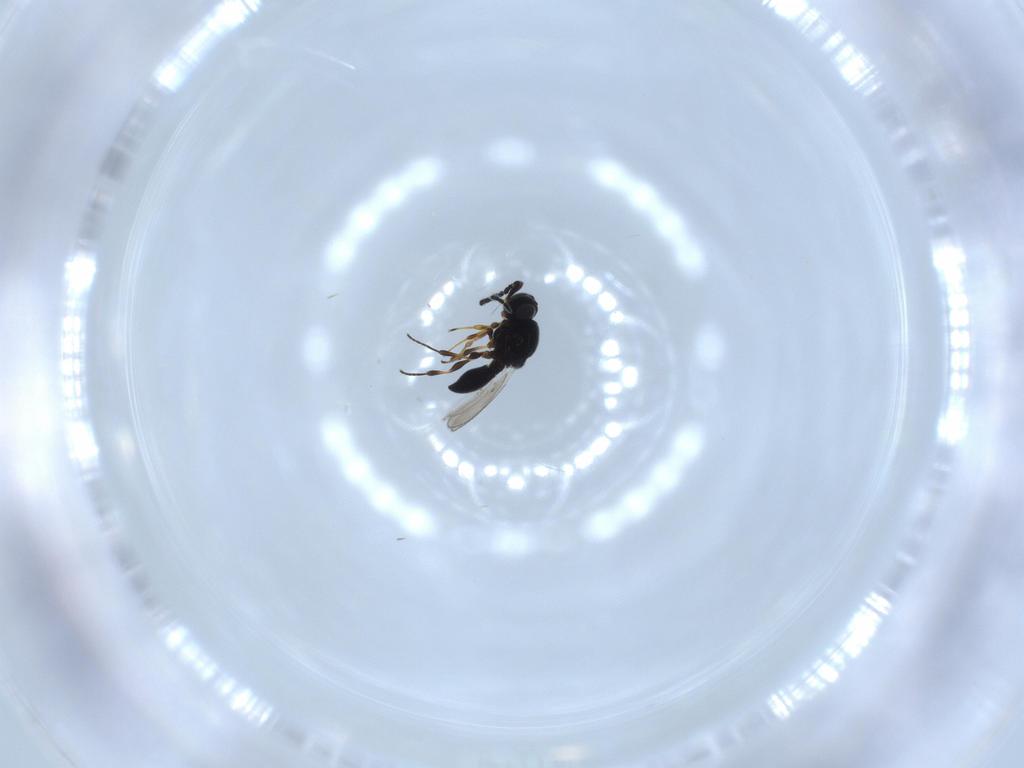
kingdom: Animalia
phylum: Arthropoda
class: Insecta
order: Hymenoptera
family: Platygastridae
